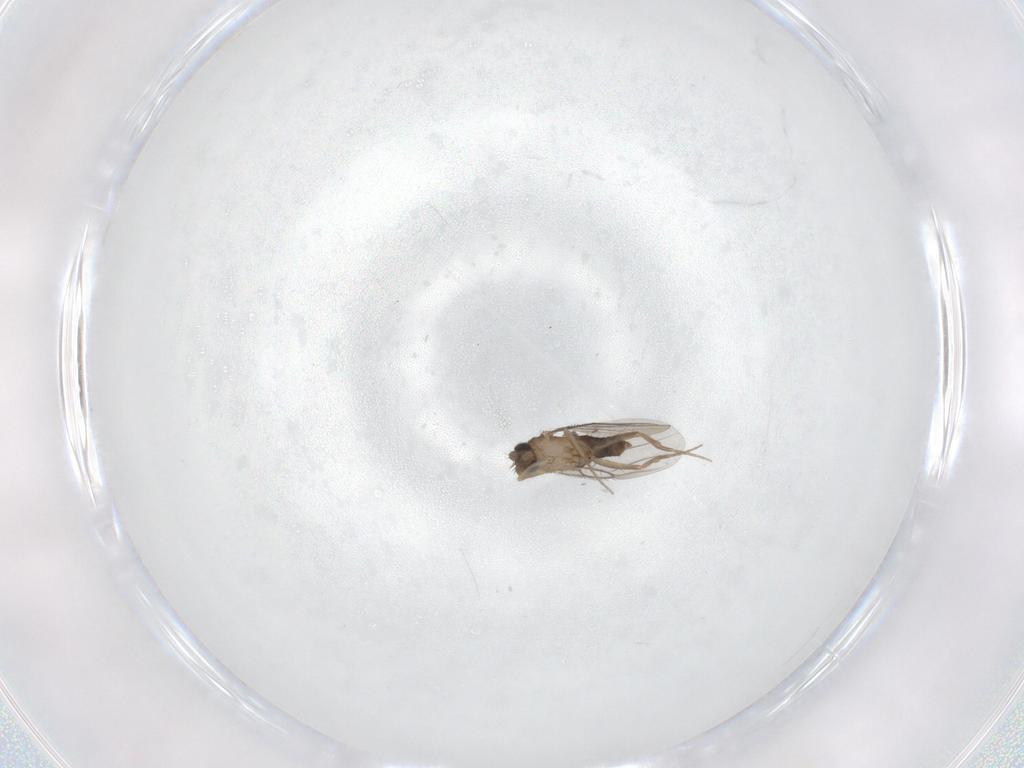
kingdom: Animalia
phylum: Arthropoda
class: Insecta
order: Diptera
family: Phoridae
